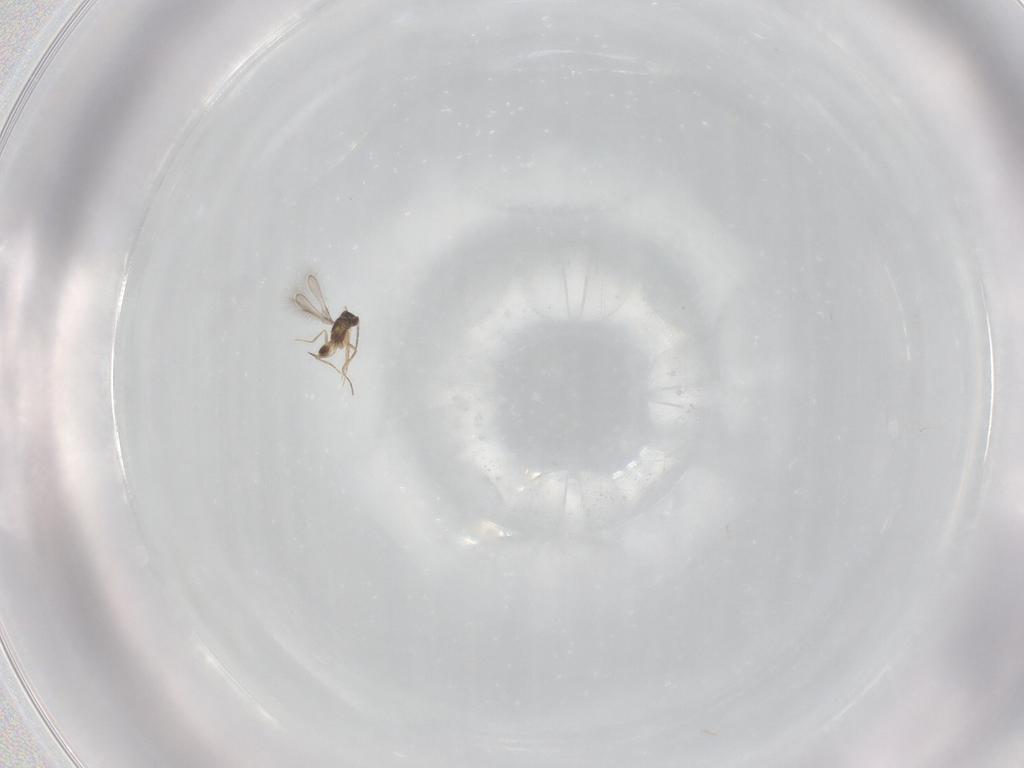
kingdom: Animalia
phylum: Arthropoda
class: Insecta
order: Hymenoptera
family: Mymaridae
